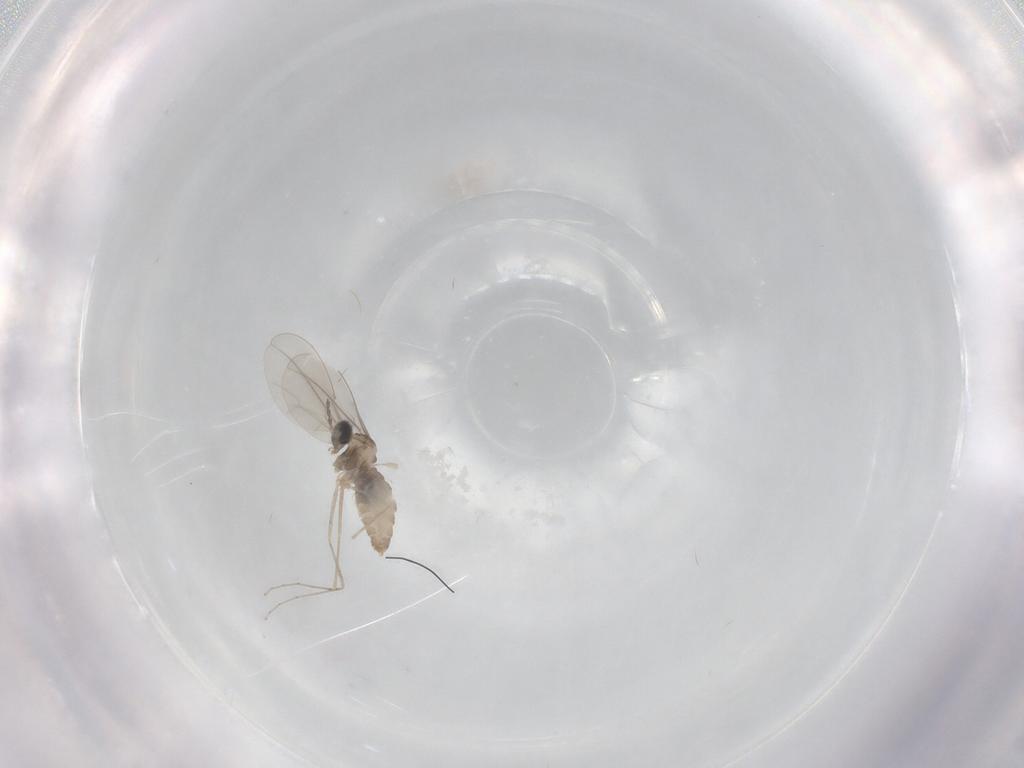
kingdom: Animalia
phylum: Arthropoda
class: Insecta
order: Diptera
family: Cecidomyiidae
